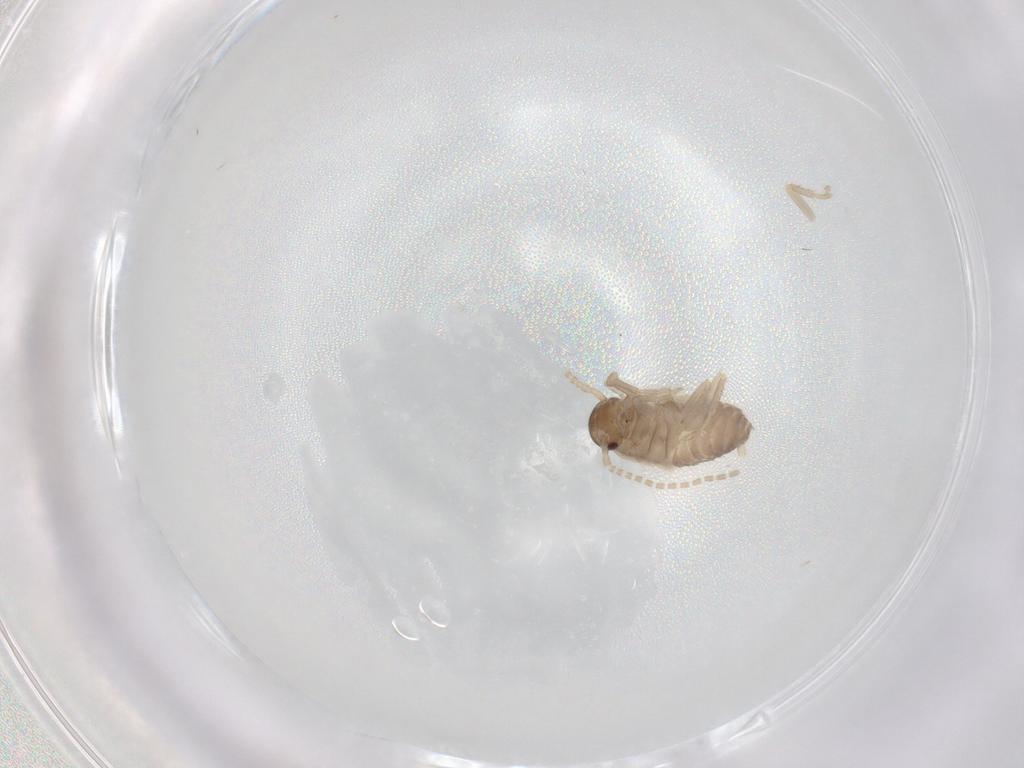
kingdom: Animalia
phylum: Arthropoda
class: Insecta
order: Blattodea
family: Ectobiidae
